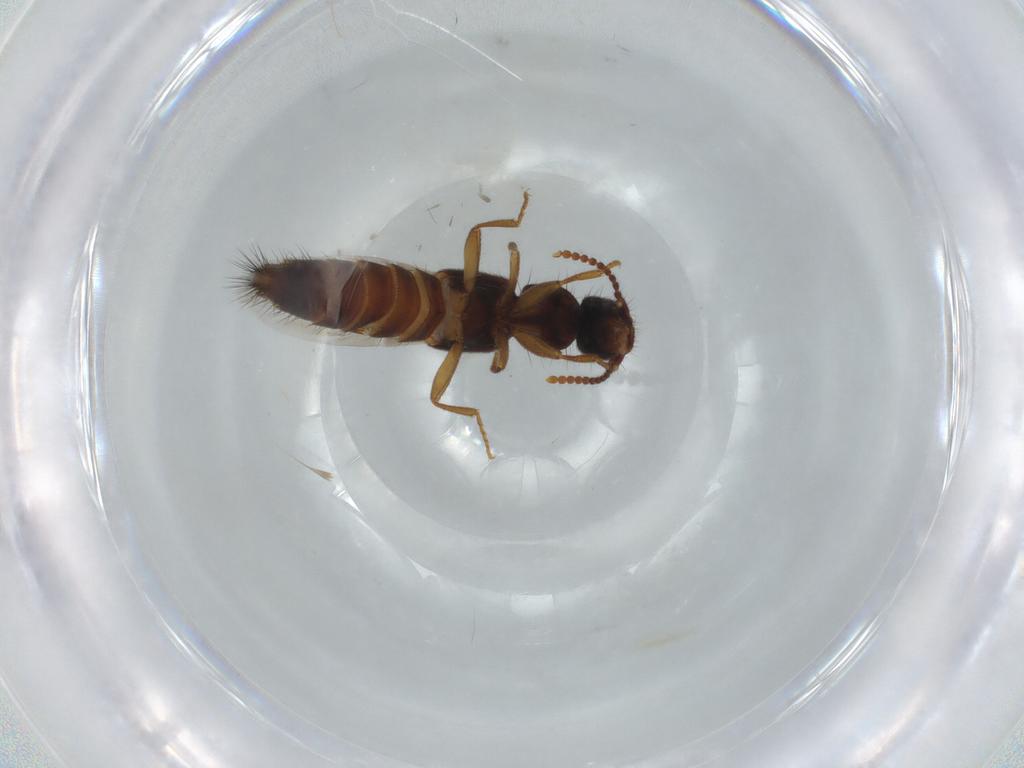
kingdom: Animalia
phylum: Arthropoda
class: Insecta
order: Coleoptera
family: Staphylinidae
